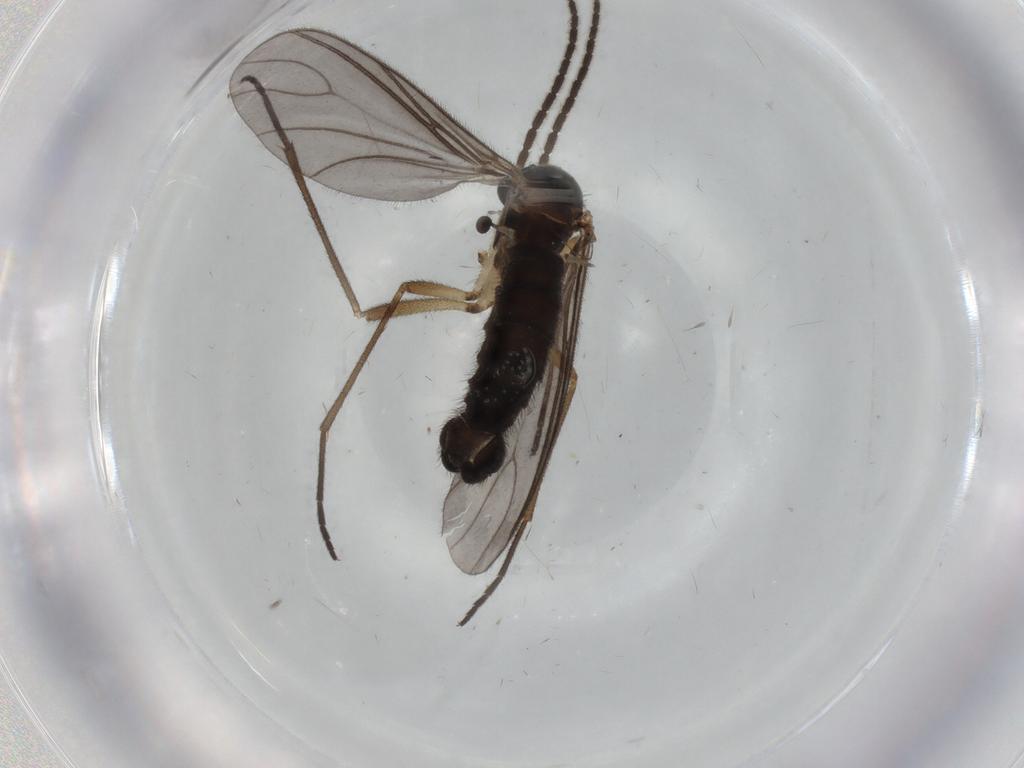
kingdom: Animalia
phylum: Arthropoda
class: Insecta
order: Diptera
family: Sciaridae
